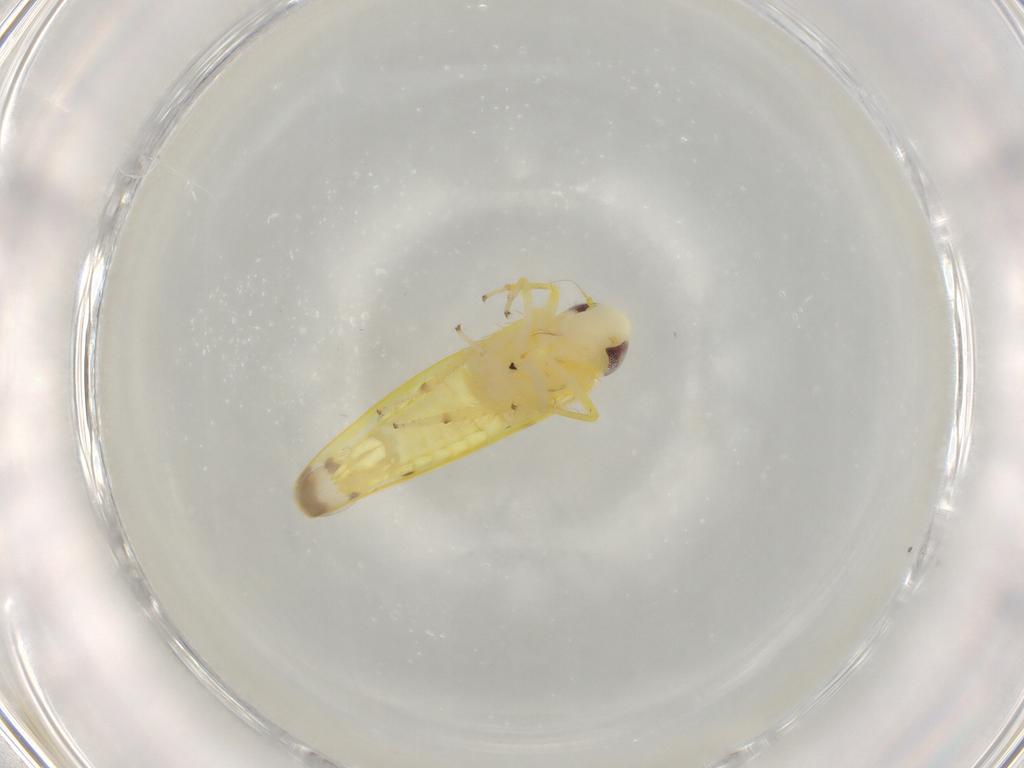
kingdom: Animalia
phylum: Arthropoda
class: Insecta
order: Hemiptera
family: Cicadellidae
